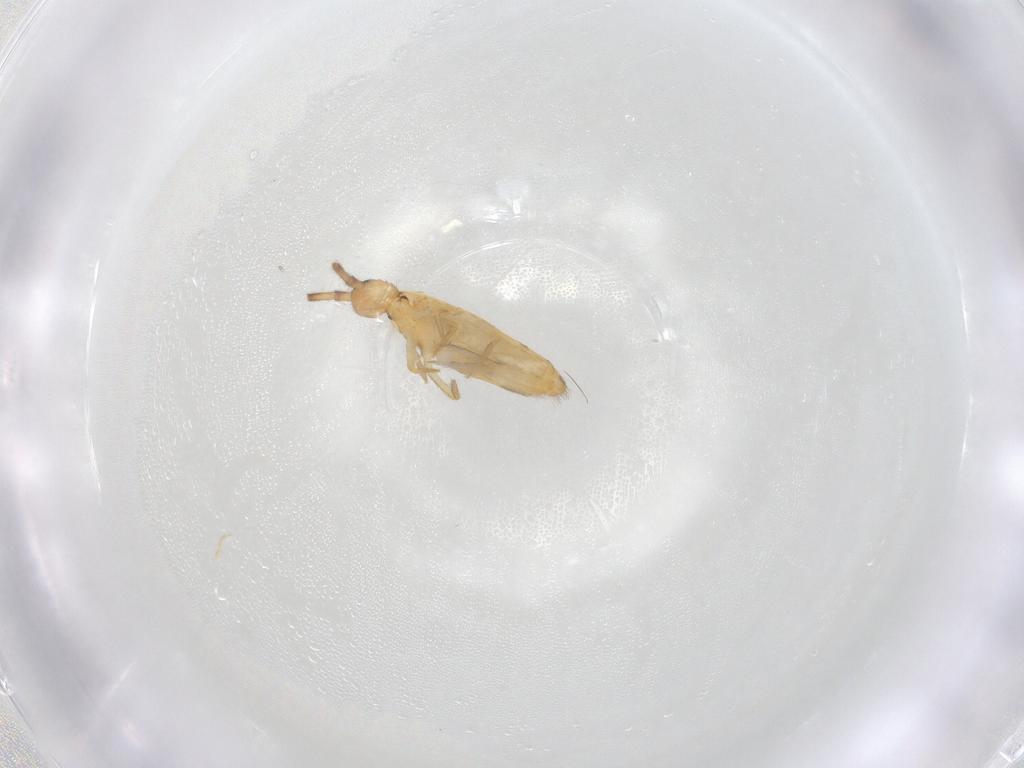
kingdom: Animalia
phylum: Arthropoda
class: Collembola
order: Entomobryomorpha
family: Entomobryidae
